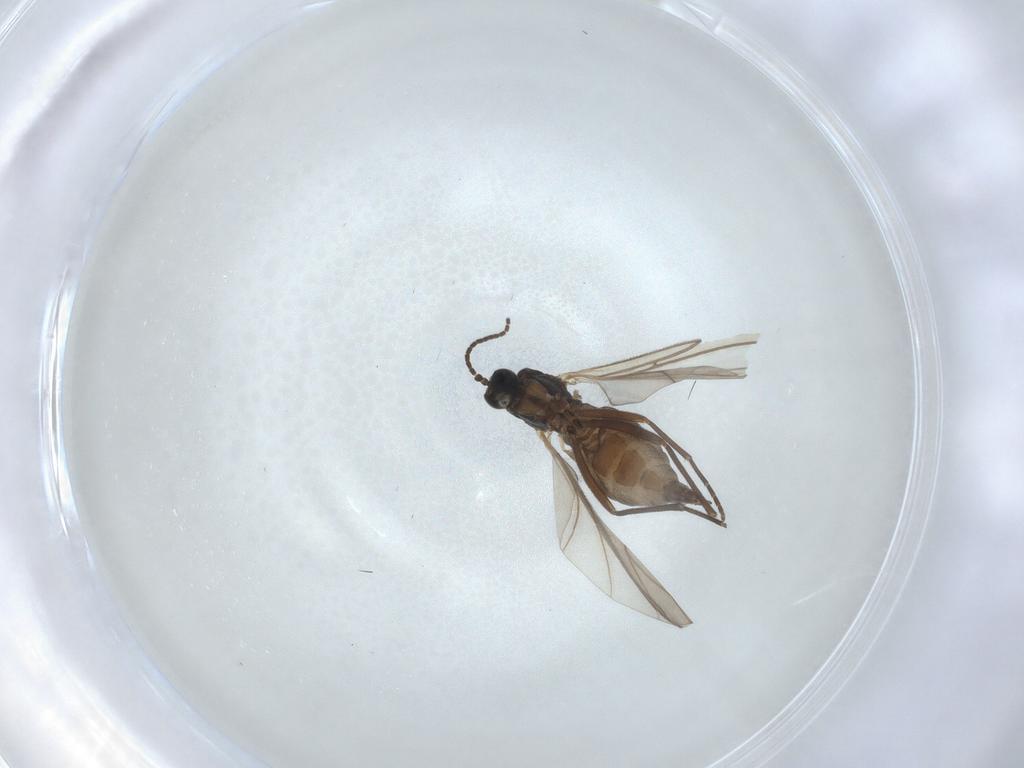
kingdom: Animalia
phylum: Arthropoda
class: Insecta
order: Diptera
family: Sciaridae
